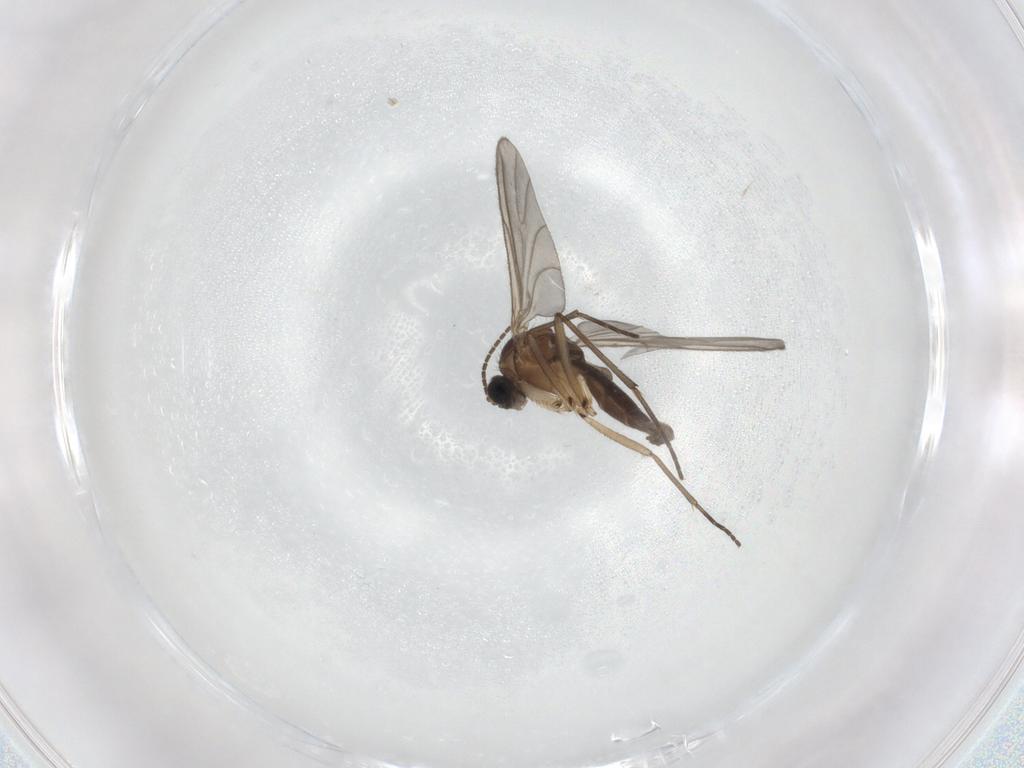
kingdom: Animalia
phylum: Arthropoda
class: Insecta
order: Diptera
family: Sciaridae
